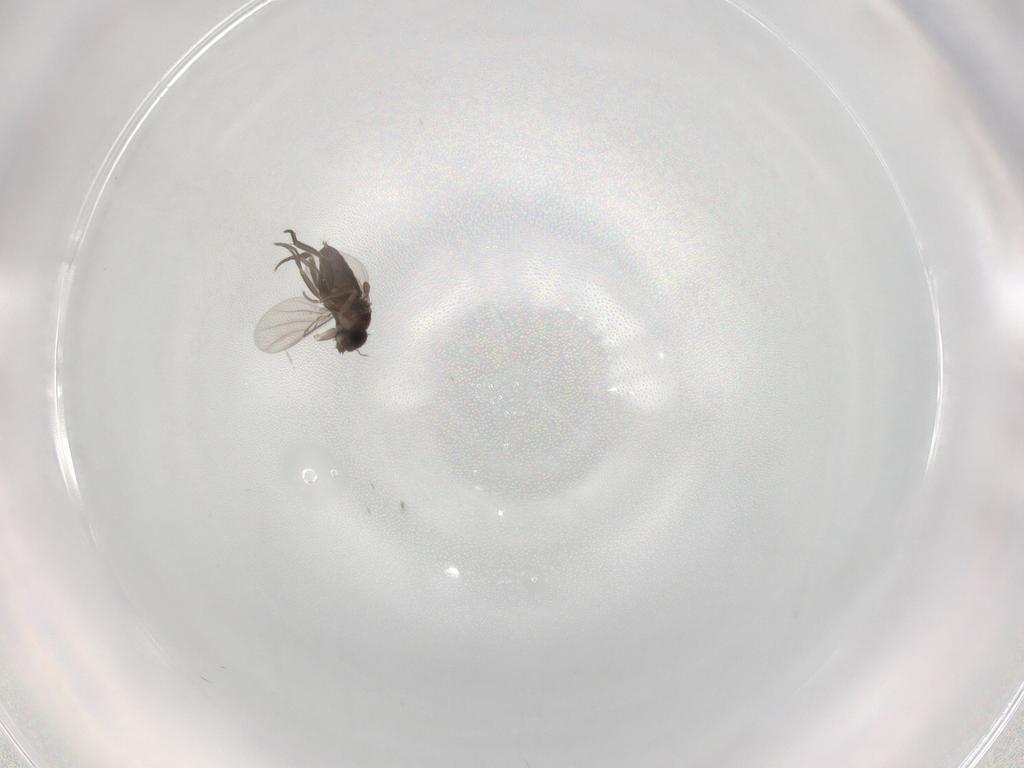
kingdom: Animalia
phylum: Arthropoda
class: Insecta
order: Diptera
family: Phoridae
